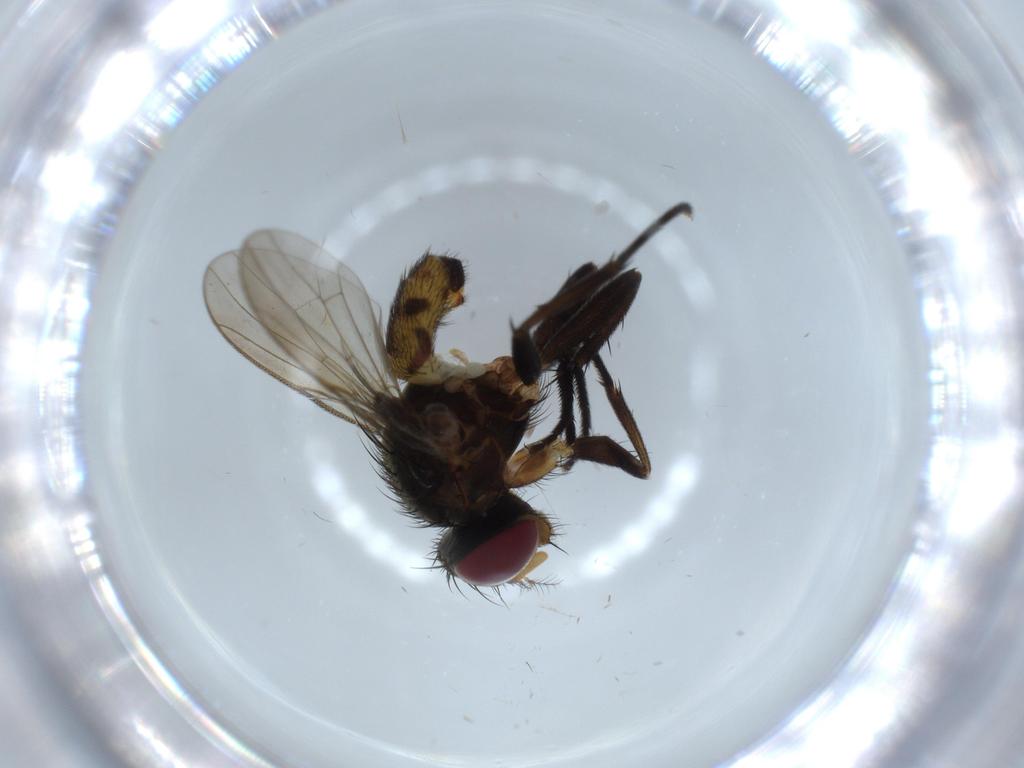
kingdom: Animalia
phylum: Arthropoda
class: Insecta
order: Diptera
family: Anthomyiidae
